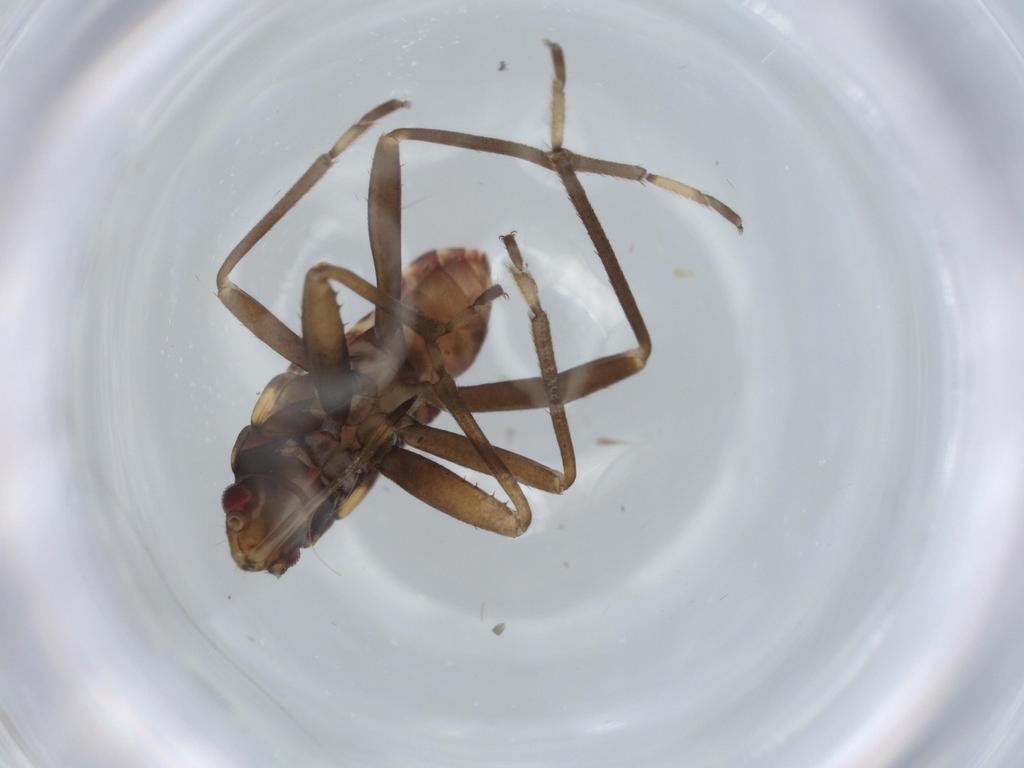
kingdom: Animalia
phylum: Arthropoda
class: Insecta
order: Hemiptera
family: Rhyparochromidae
